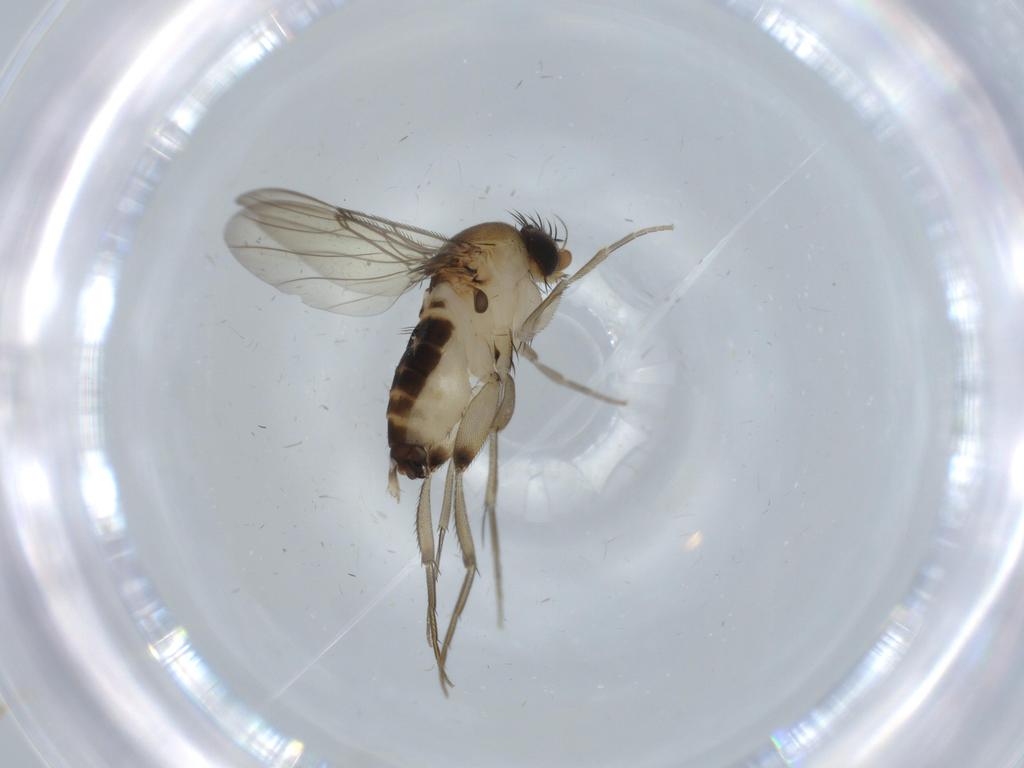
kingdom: Animalia
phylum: Arthropoda
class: Insecta
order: Diptera
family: Phoridae
